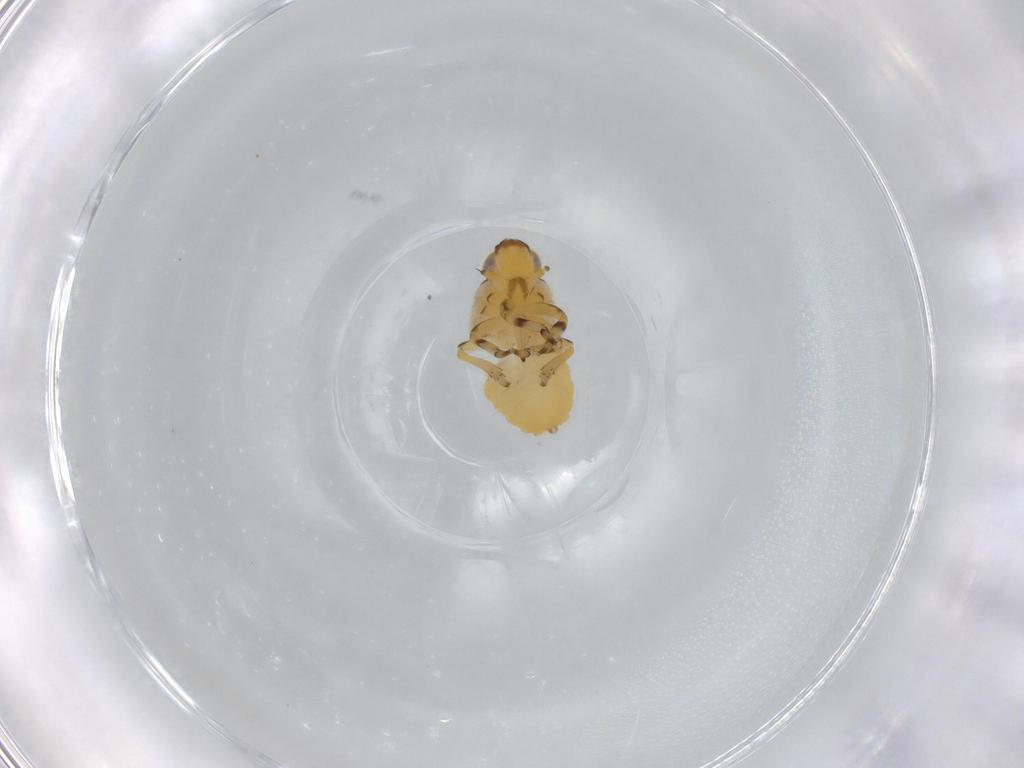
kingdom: Animalia
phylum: Arthropoda
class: Insecta
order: Hemiptera
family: Issidae
